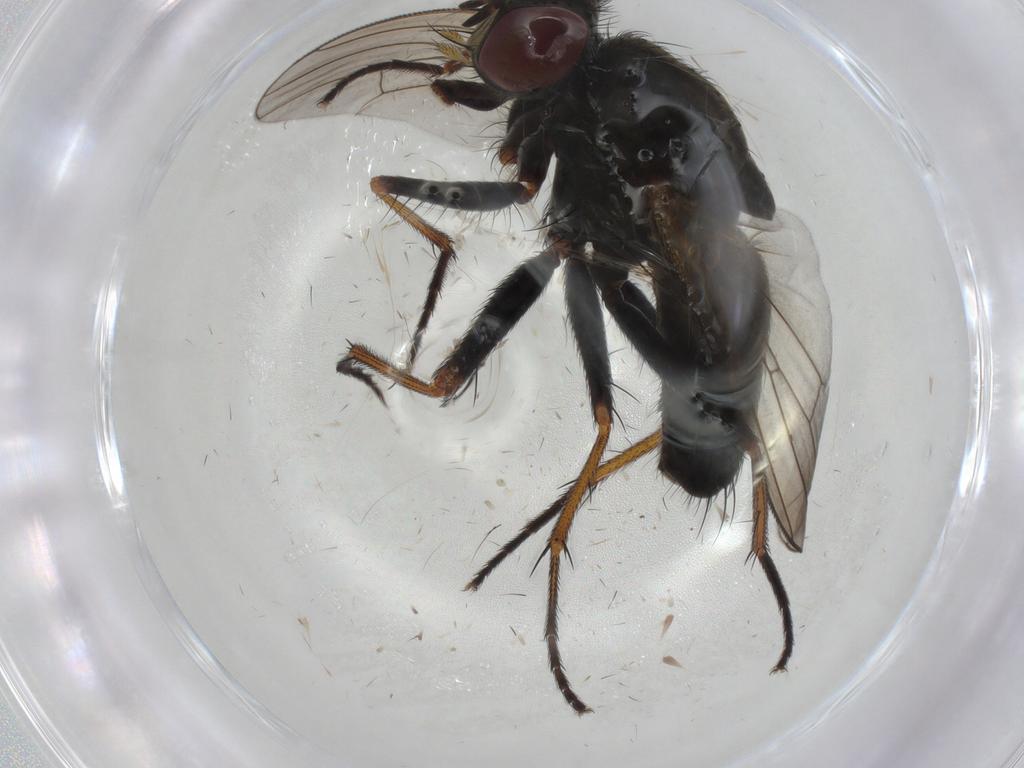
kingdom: Animalia
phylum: Arthropoda
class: Insecta
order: Diptera
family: Muscidae
